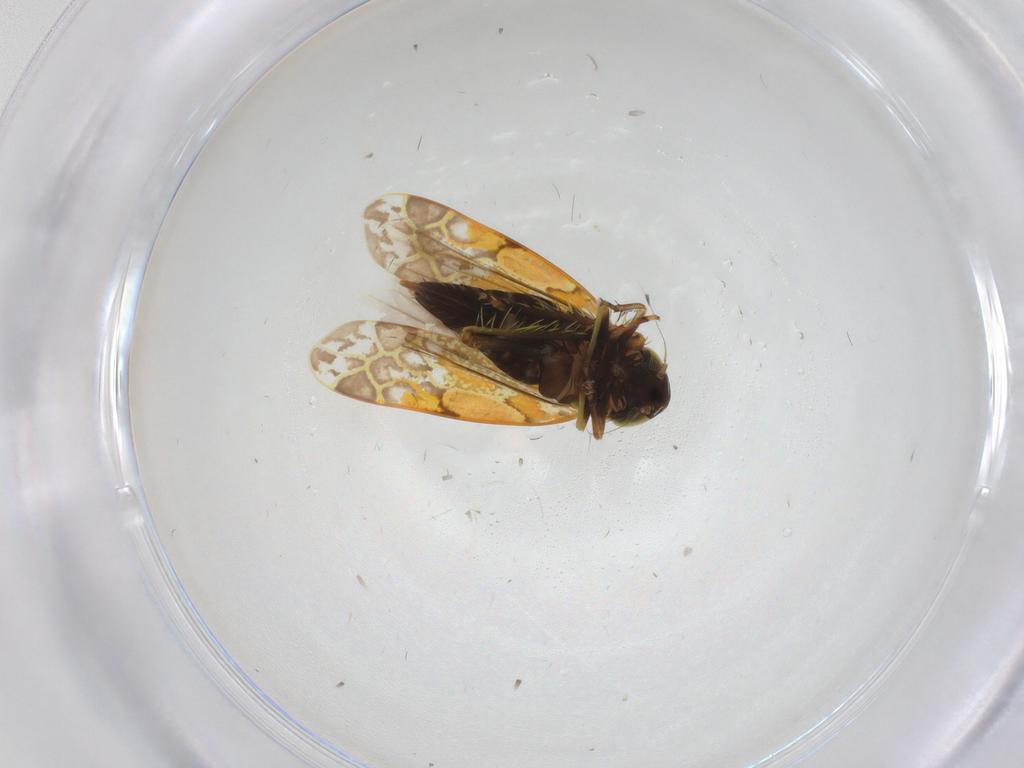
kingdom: Animalia
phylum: Arthropoda
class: Insecta
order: Hemiptera
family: Cicadellidae
